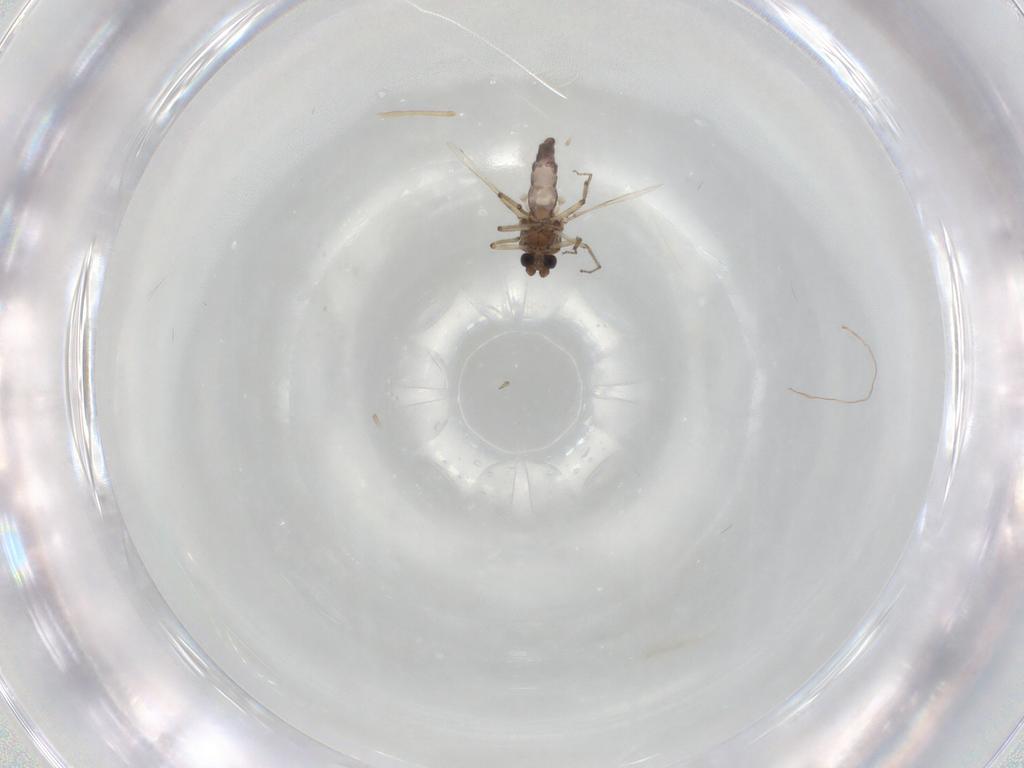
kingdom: Animalia
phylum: Arthropoda
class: Insecta
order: Diptera
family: Ceratopogonidae
